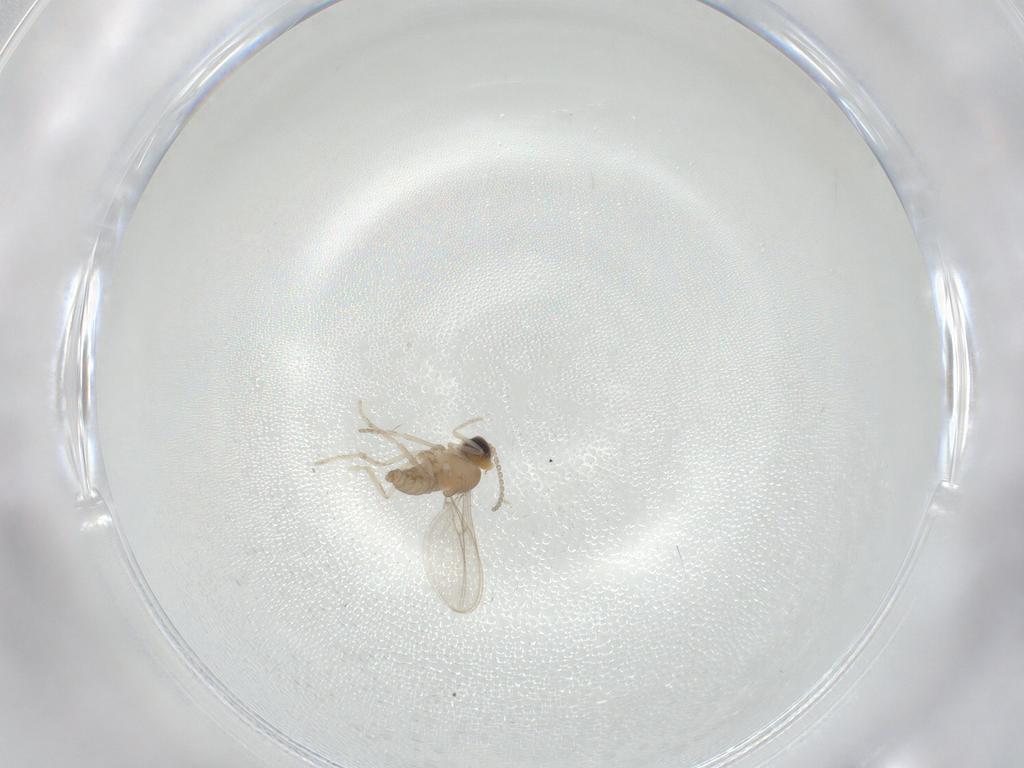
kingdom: Animalia
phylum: Arthropoda
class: Insecta
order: Diptera
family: Cecidomyiidae
